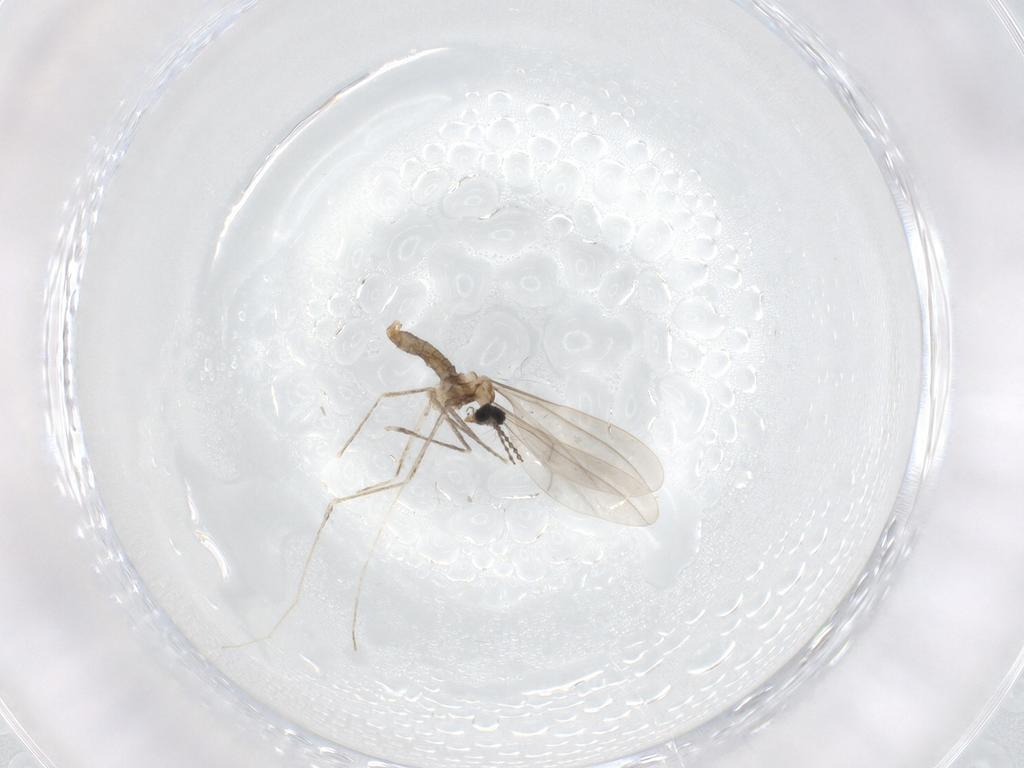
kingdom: Animalia
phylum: Arthropoda
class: Insecta
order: Diptera
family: Cecidomyiidae
